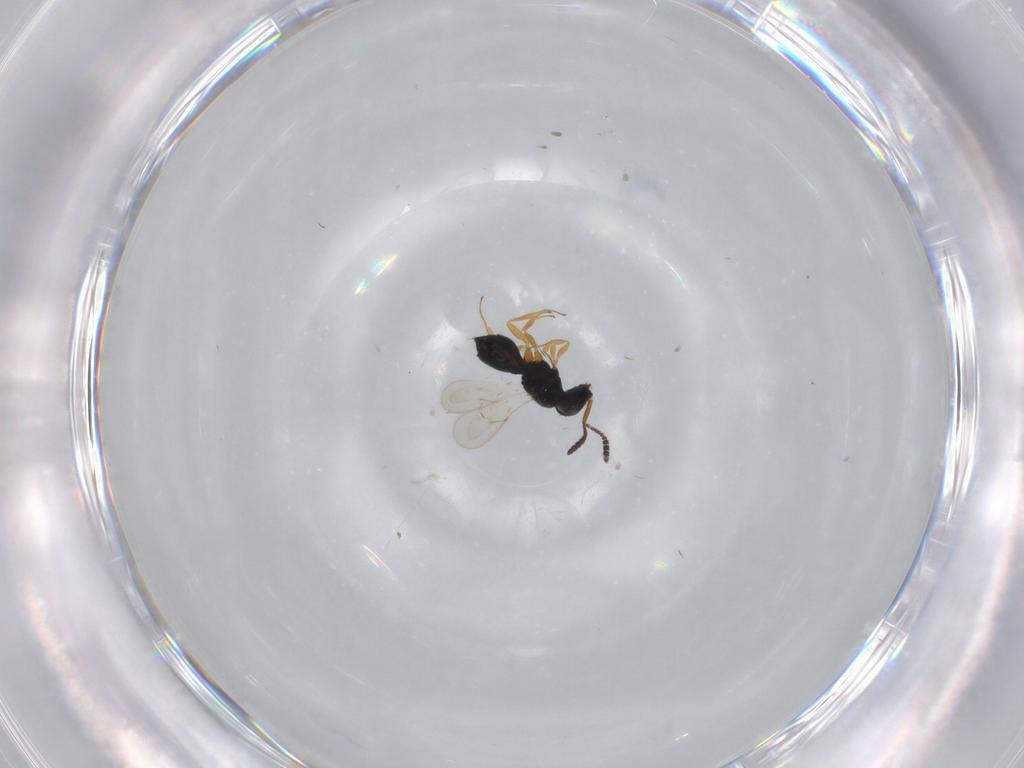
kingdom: Animalia
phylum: Arthropoda
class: Insecta
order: Hymenoptera
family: Scelionidae
